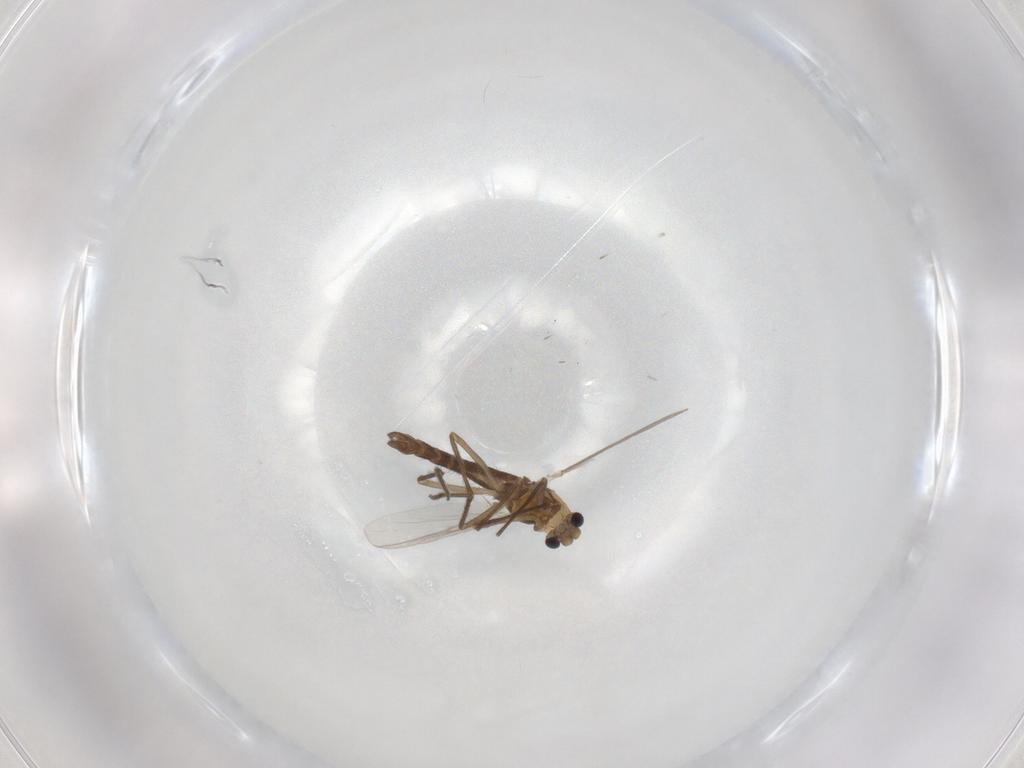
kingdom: Animalia
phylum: Arthropoda
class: Insecta
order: Diptera
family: Chironomidae
